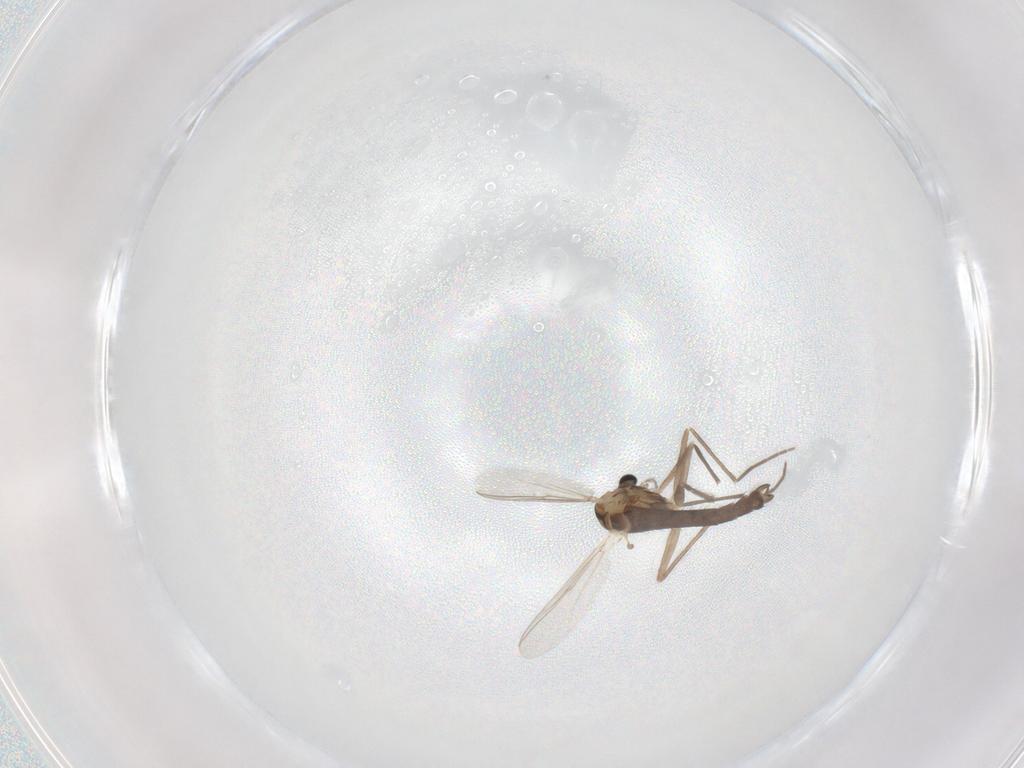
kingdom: Animalia
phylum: Arthropoda
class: Insecta
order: Diptera
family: Chironomidae
